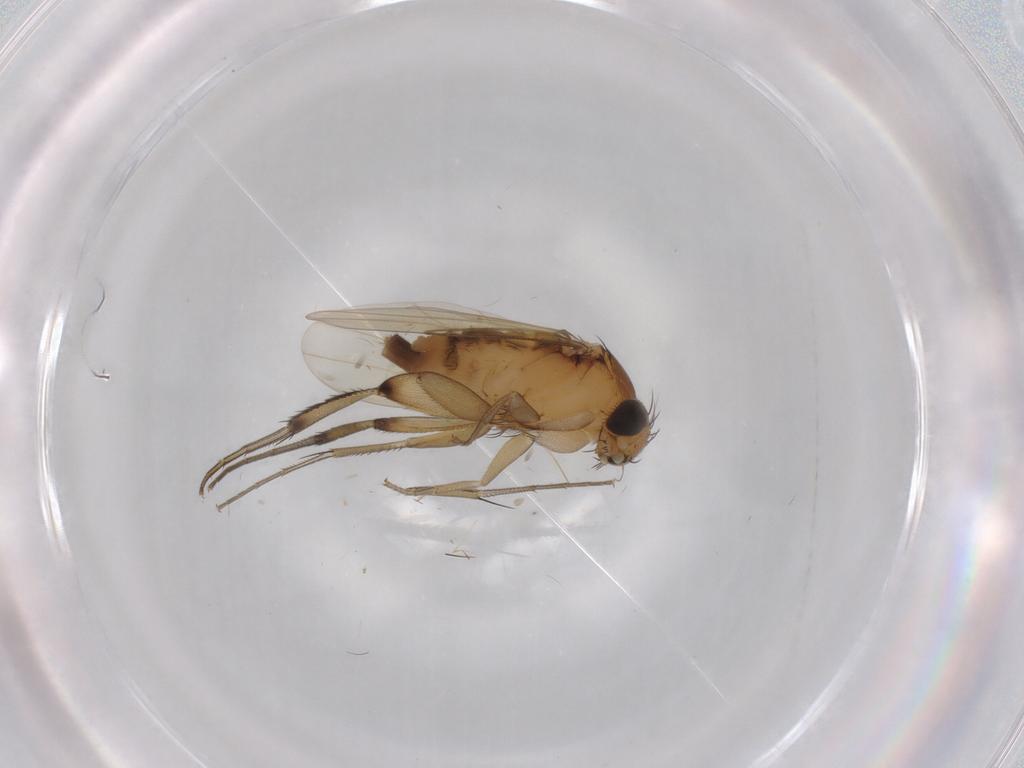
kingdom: Animalia
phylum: Arthropoda
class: Insecta
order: Diptera
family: Phoridae
